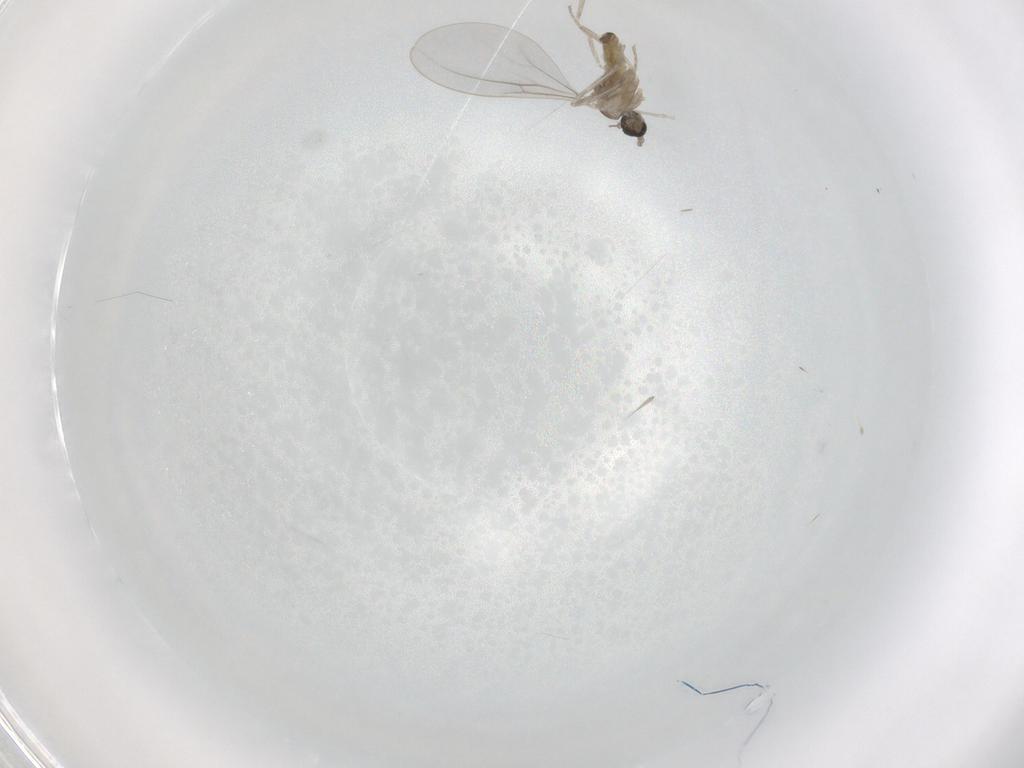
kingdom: Animalia
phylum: Arthropoda
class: Insecta
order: Diptera
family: Cecidomyiidae
